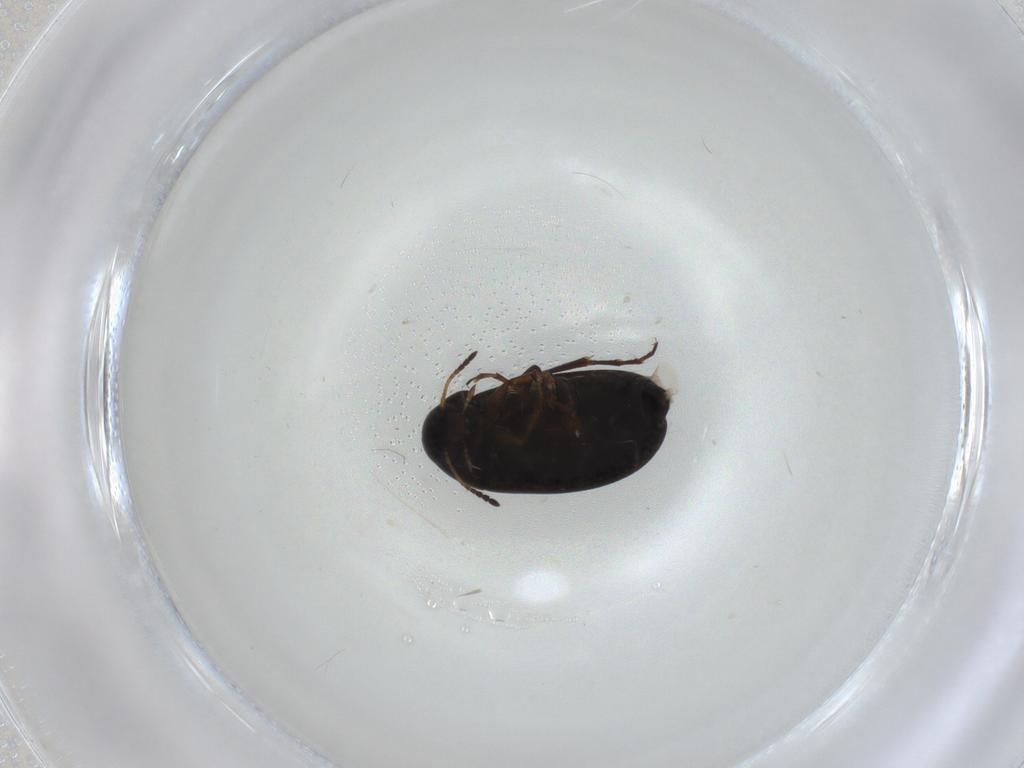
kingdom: Animalia
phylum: Arthropoda
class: Insecta
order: Coleoptera
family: Scraptiidae
